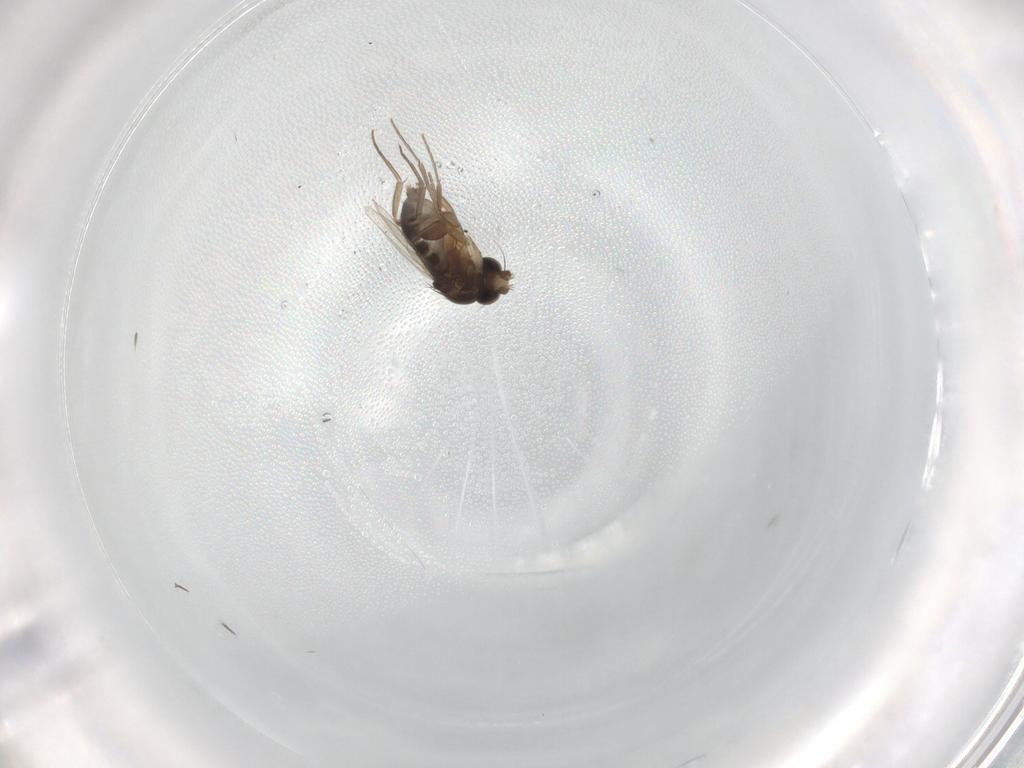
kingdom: Animalia
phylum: Arthropoda
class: Insecta
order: Diptera
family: Phoridae
